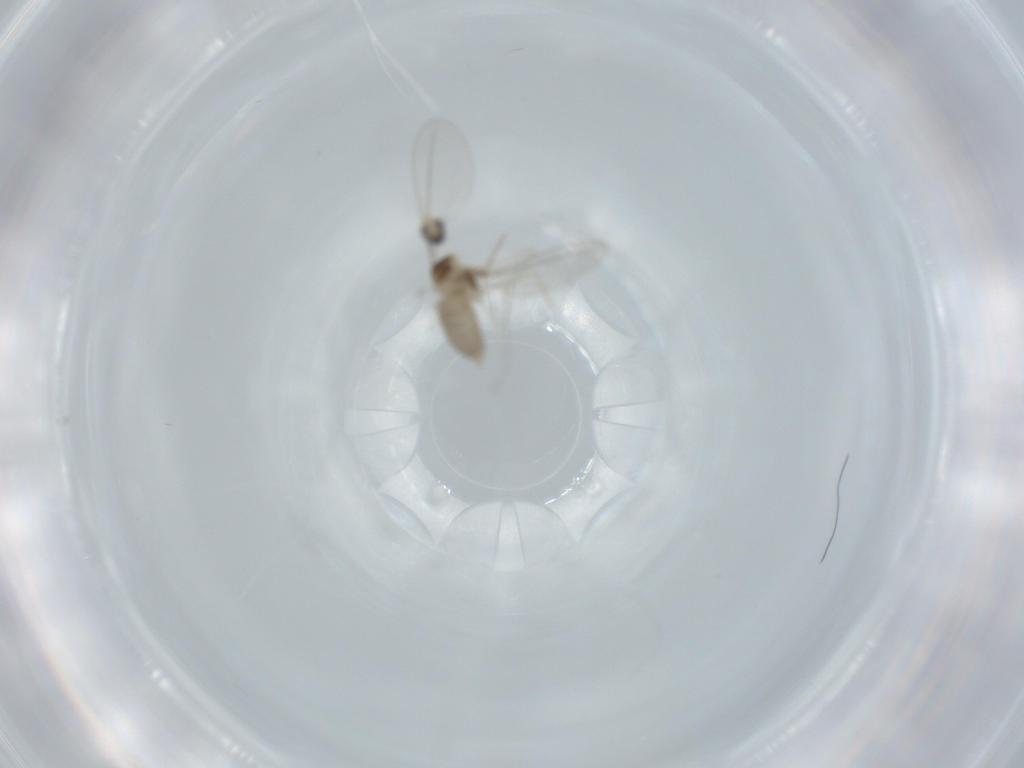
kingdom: Animalia
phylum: Arthropoda
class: Insecta
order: Diptera
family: Cecidomyiidae
